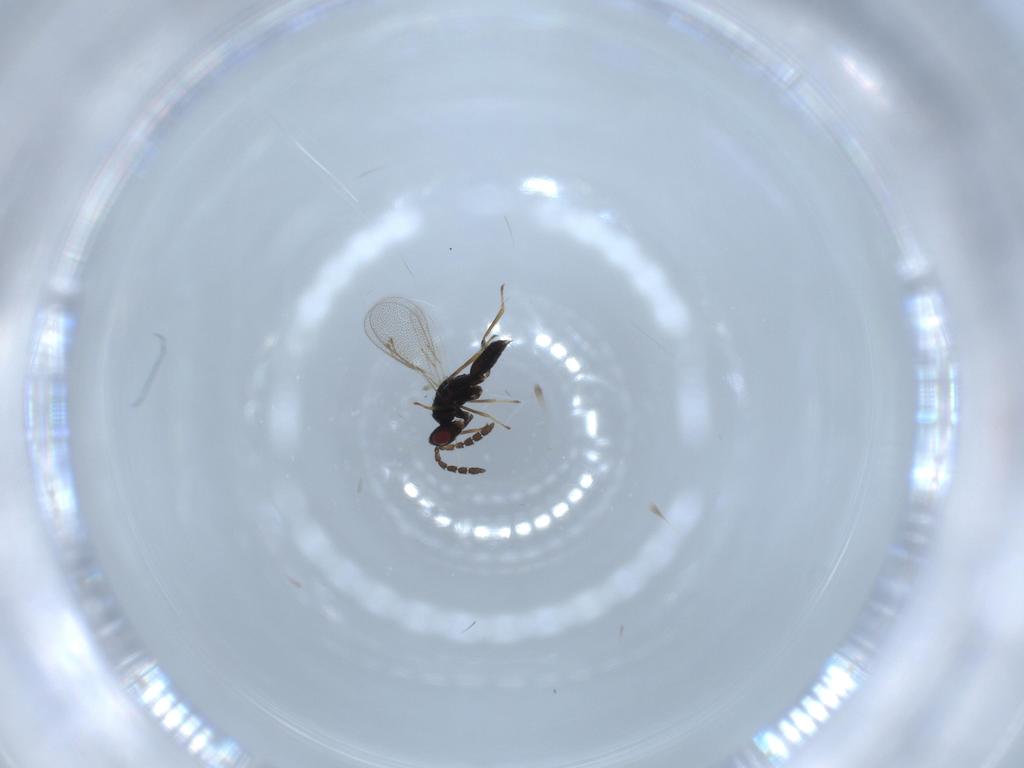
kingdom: Animalia
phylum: Arthropoda
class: Insecta
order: Hymenoptera
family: Eulophidae
